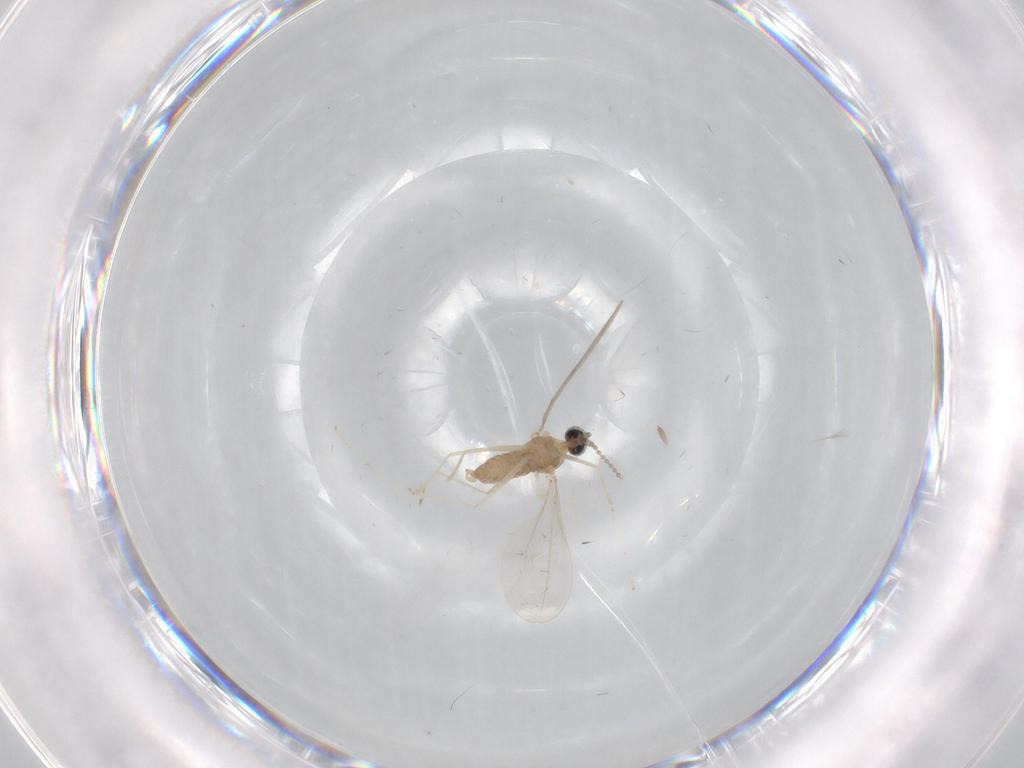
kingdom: Animalia
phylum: Arthropoda
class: Insecta
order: Diptera
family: Cecidomyiidae
